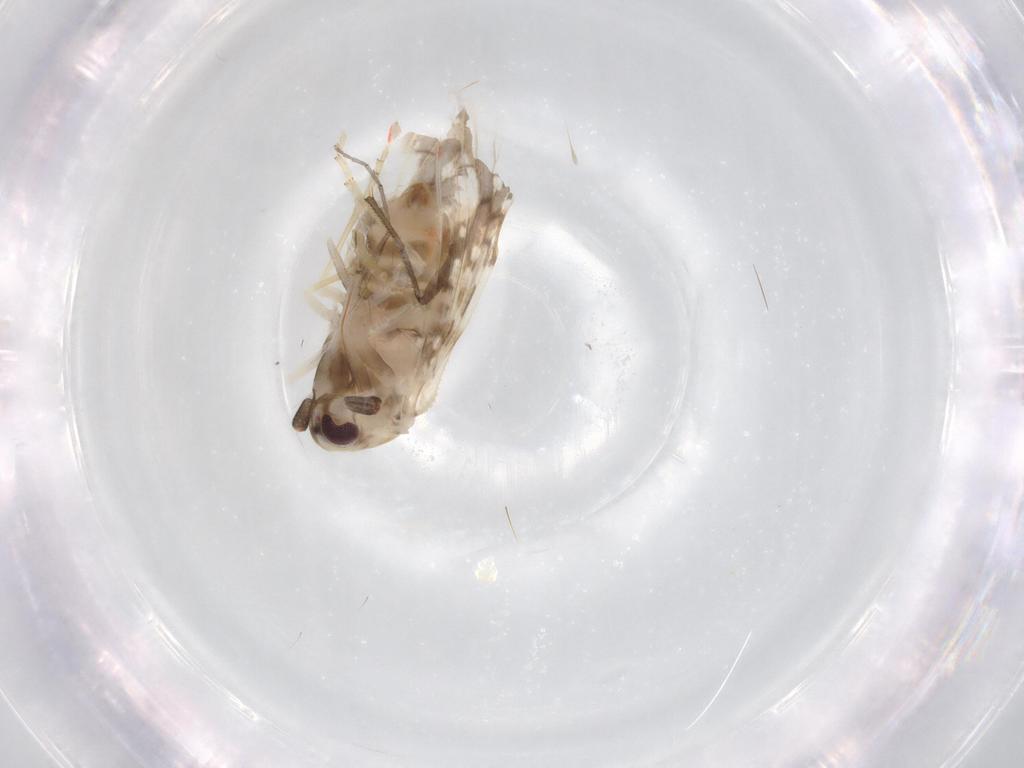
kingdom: Animalia
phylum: Arthropoda
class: Insecta
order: Hemiptera
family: Derbidae
